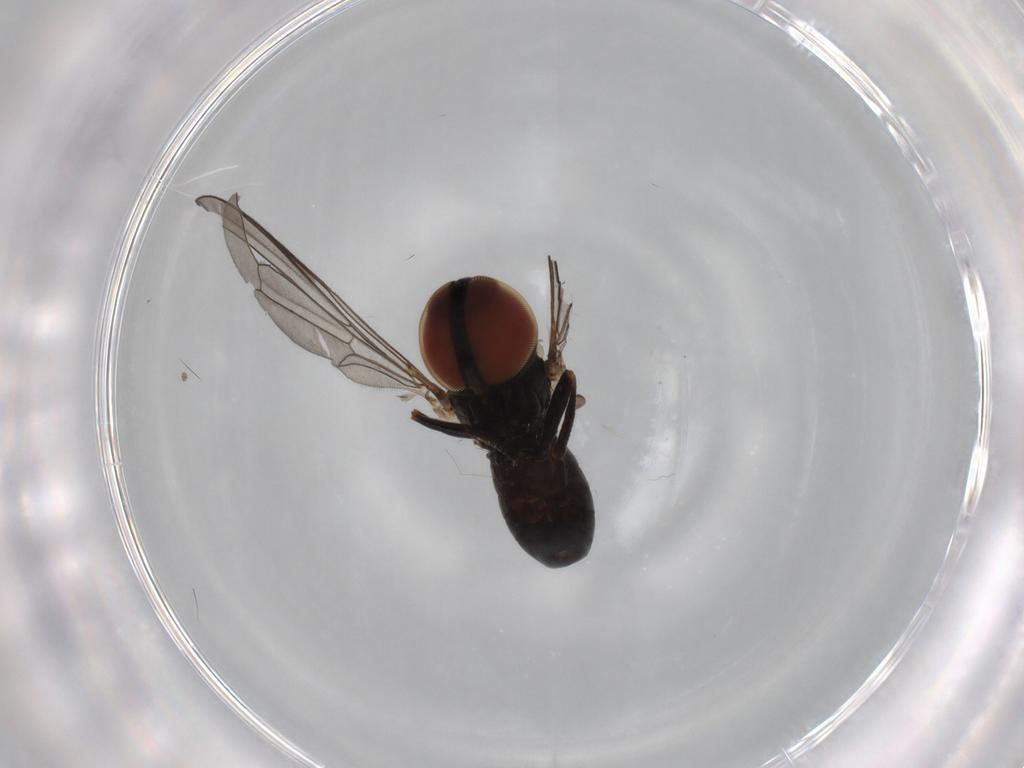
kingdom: Animalia
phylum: Arthropoda
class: Insecta
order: Diptera
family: Pipunculidae
